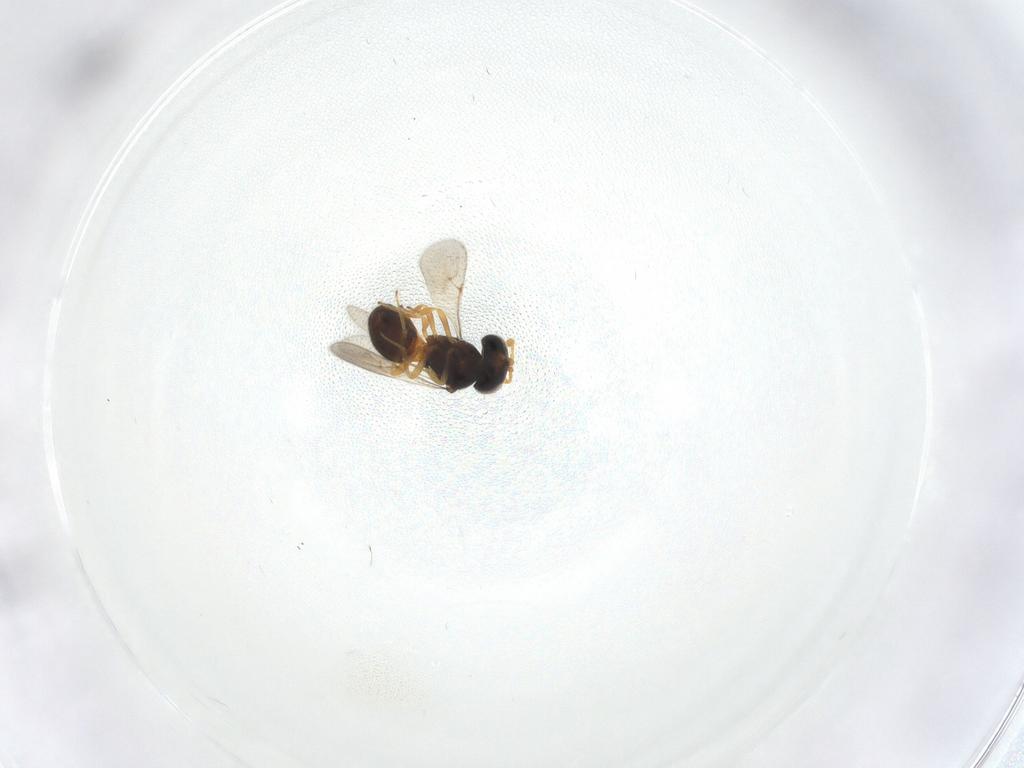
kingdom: Animalia
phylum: Arthropoda
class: Insecta
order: Hymenoptera
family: Scelionidae
